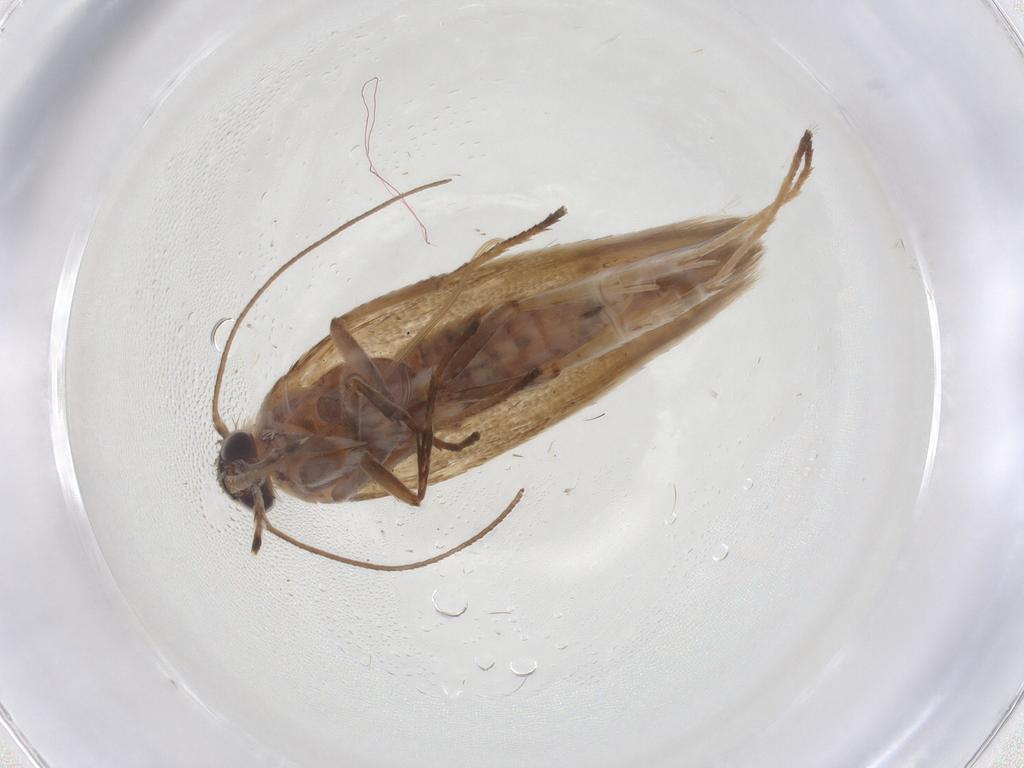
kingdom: Animalia
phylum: Arthropoda
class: Insecta
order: Lepidoptera
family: Scythrididae
